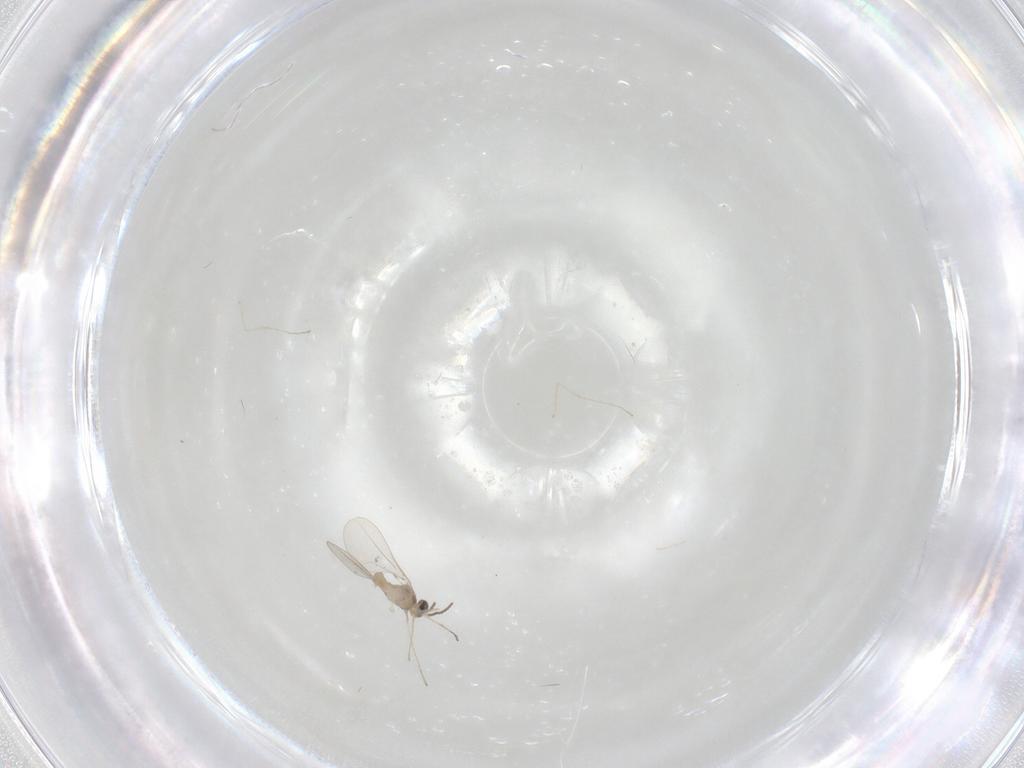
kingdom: Animalia
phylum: Arthropoda
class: Insecta
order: Diptera
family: Cecidomyiidae
